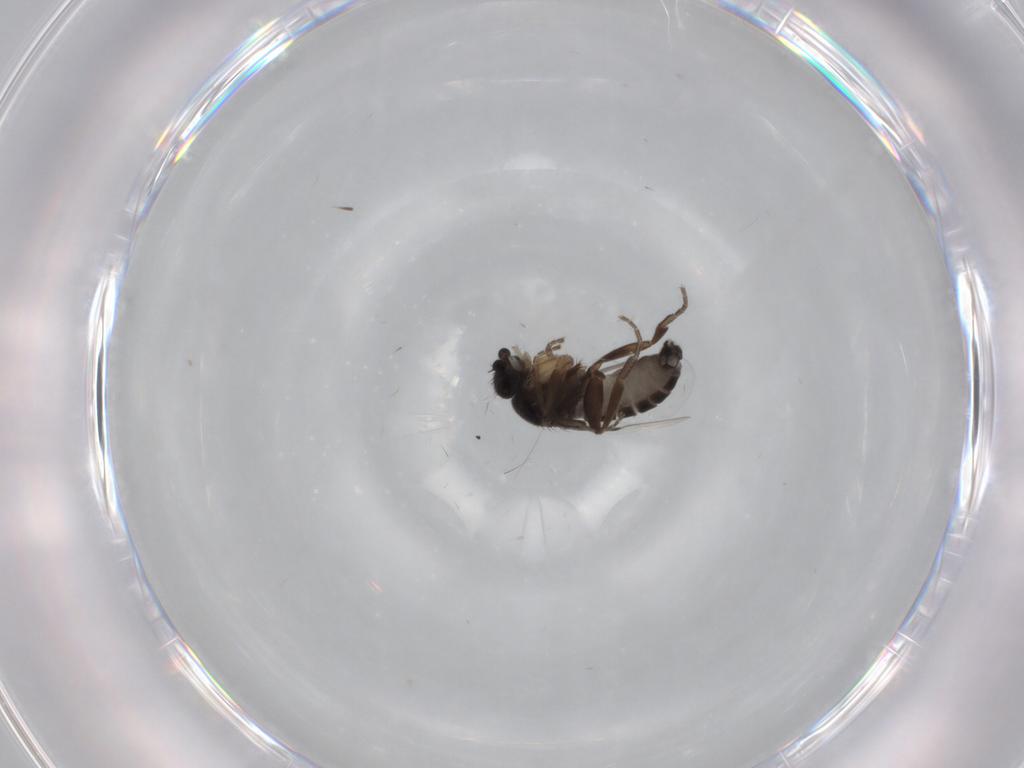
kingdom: Animalia
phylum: Arthropoda
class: Insecta
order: Diptera
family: Phoridae
